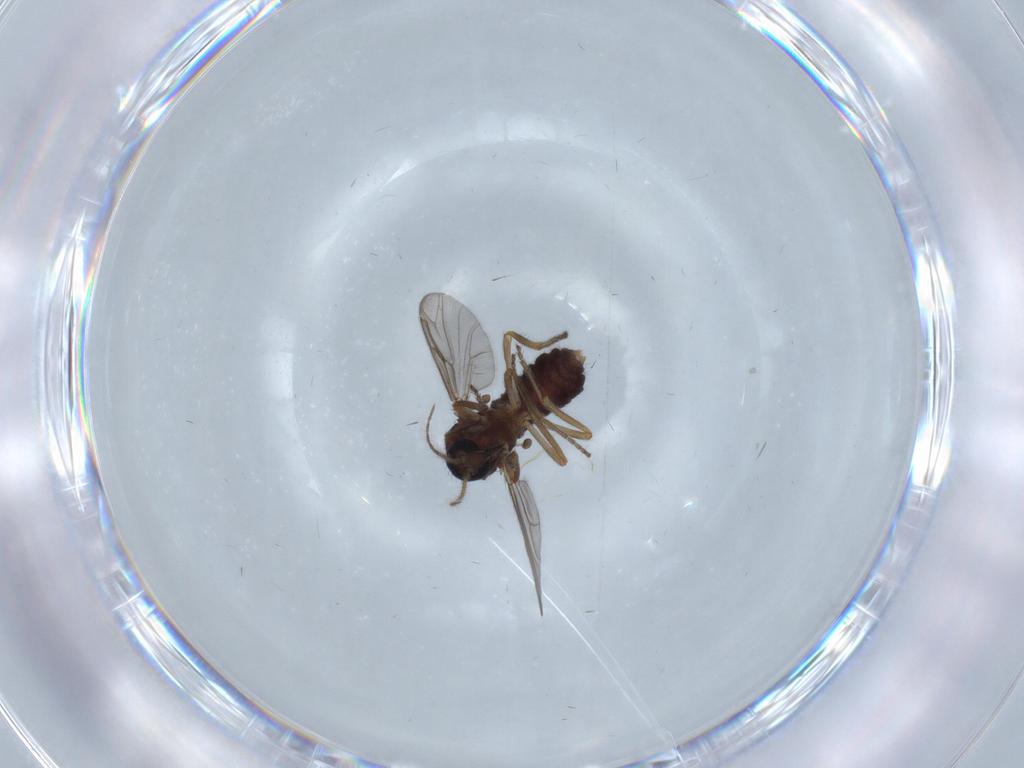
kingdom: Animalia
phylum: Arthropoda
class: Insecta
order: Diptera
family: Ceratopogonidae
